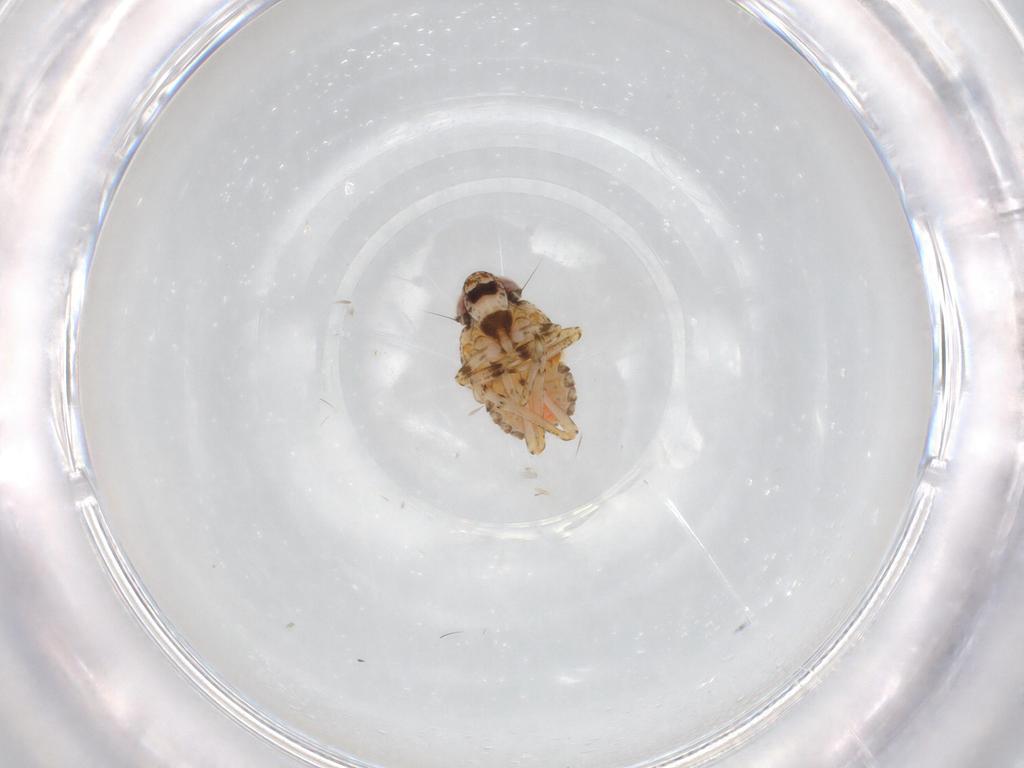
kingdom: Animalia
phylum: Arthropoda
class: Insecta
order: Hemiptera
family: Issidae
